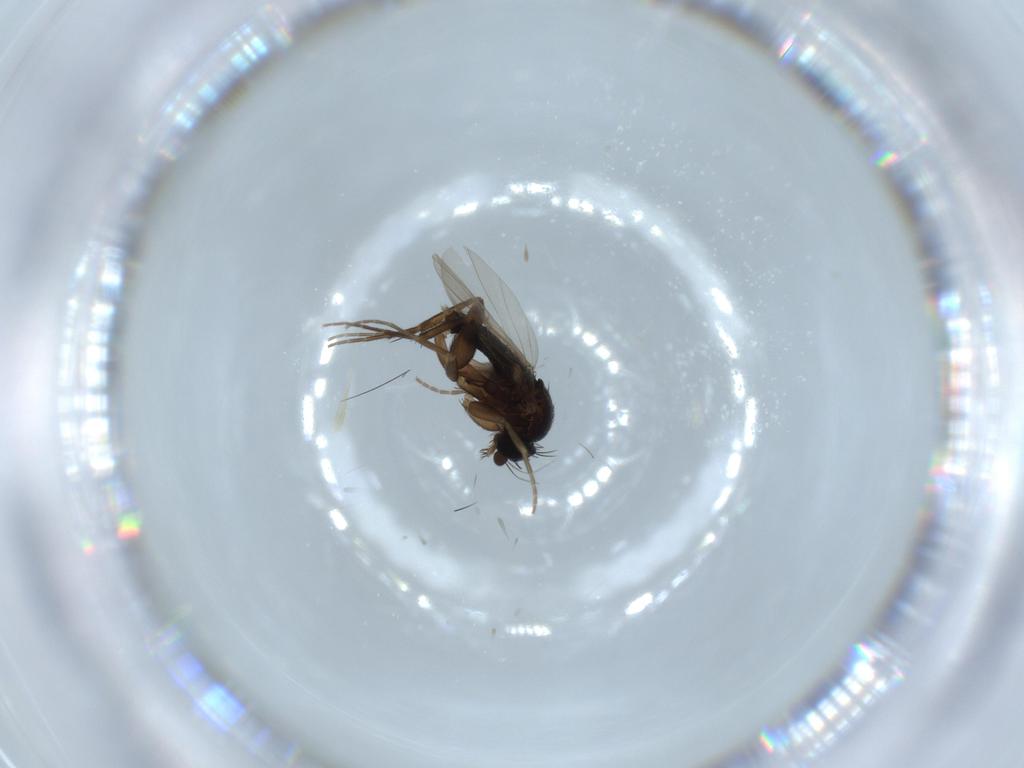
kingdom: Animalia
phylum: Arthropoda
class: Insecta
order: Diptera
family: Phoridae
